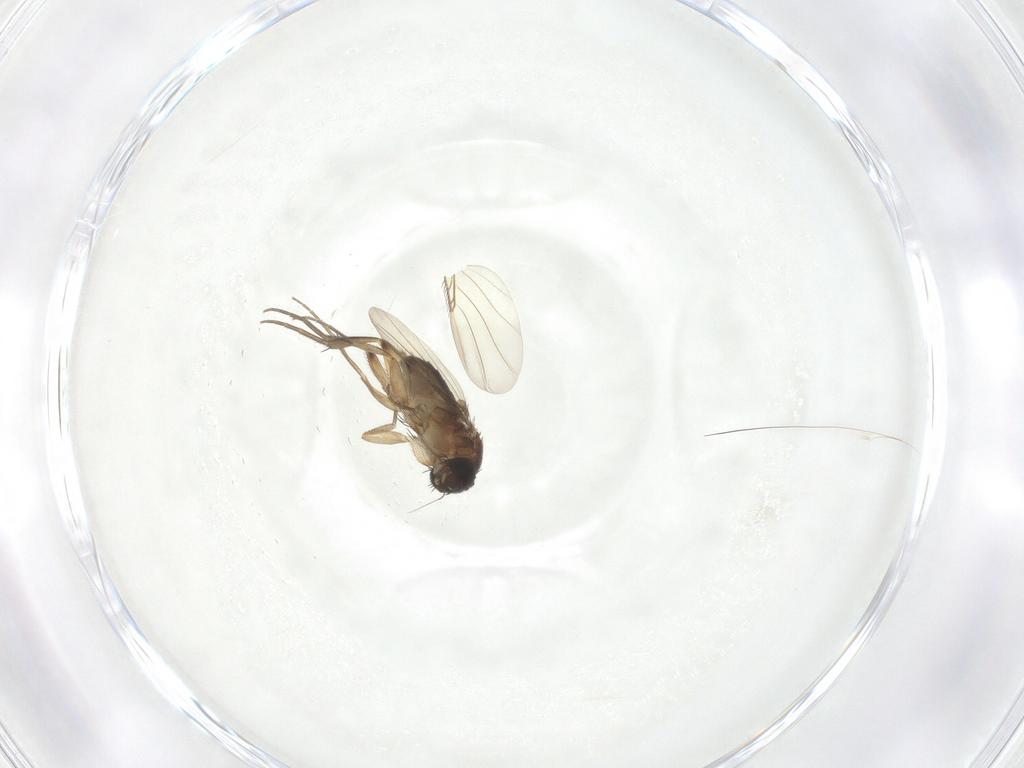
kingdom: Animalia
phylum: Arthropoda
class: Insecta
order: Diptera
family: Phoridae
